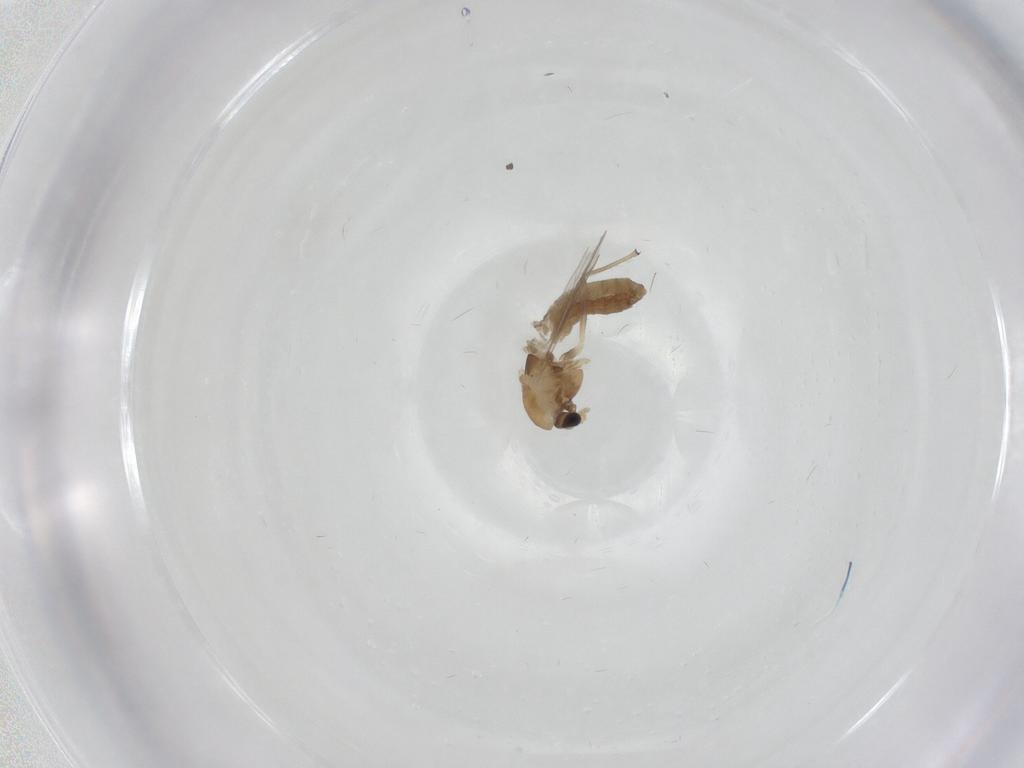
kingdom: Animalia
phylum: Arthropoda
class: Insecta
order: Diptera
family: Chironomidae
